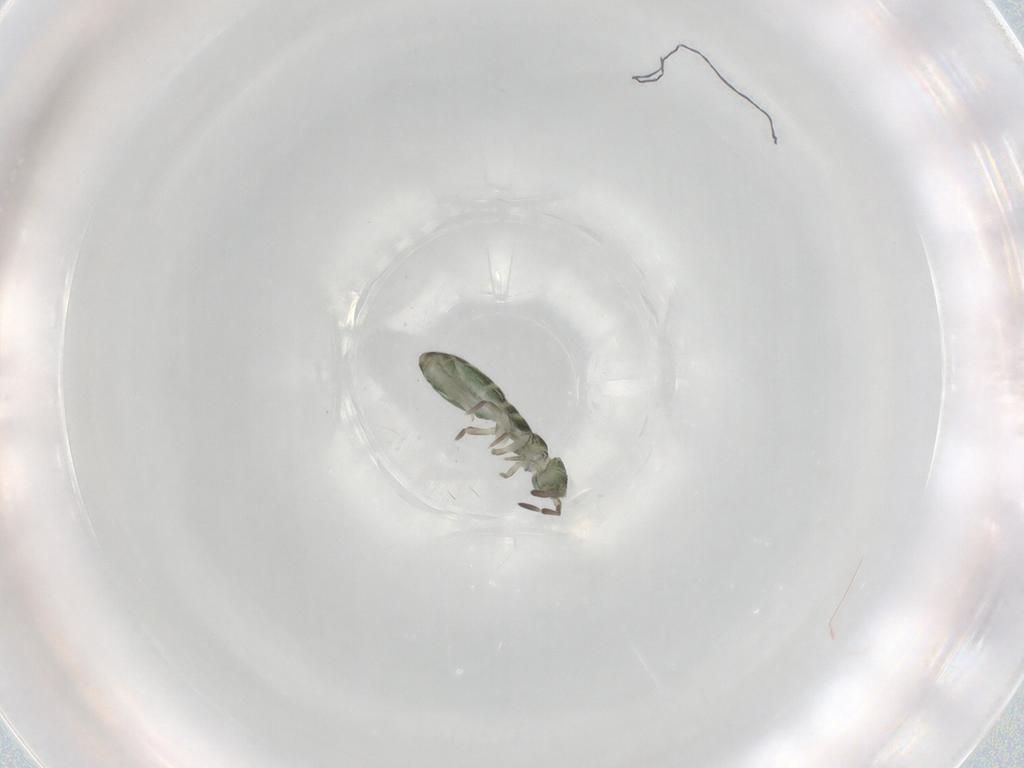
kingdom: Animalia
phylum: Arthropoda
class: Collembola
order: Entomobryomorpha
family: Isotomidae
